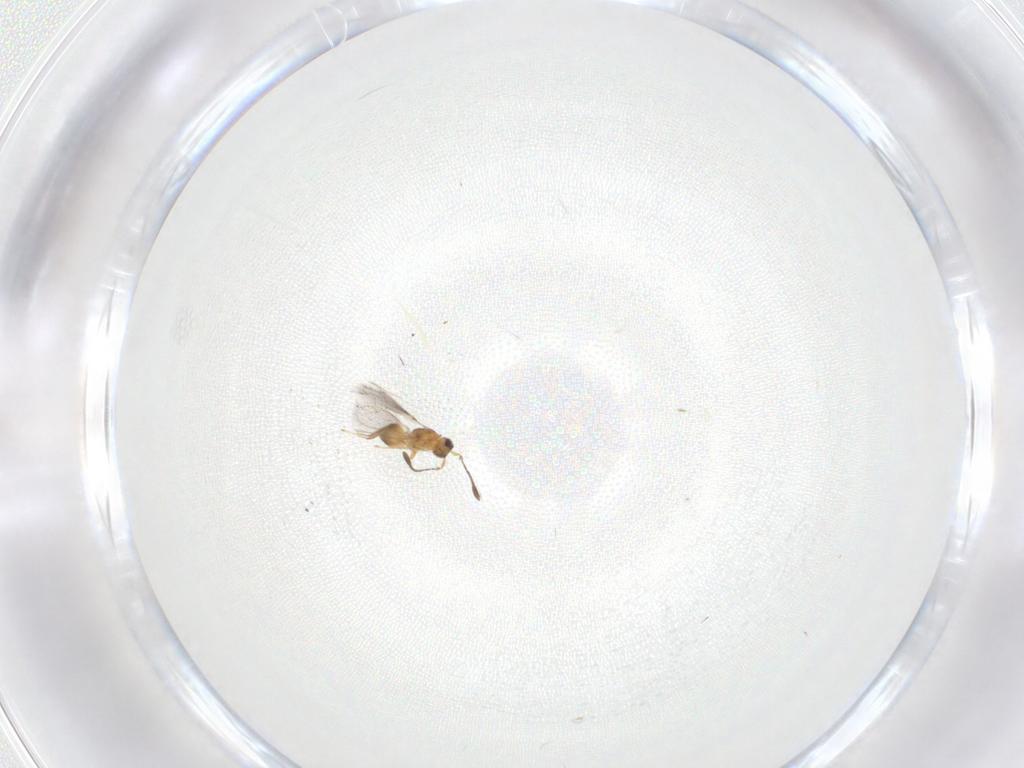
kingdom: Animalia
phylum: Arthropoda
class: Insecta
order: Hymenoptera
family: Mymaridae
